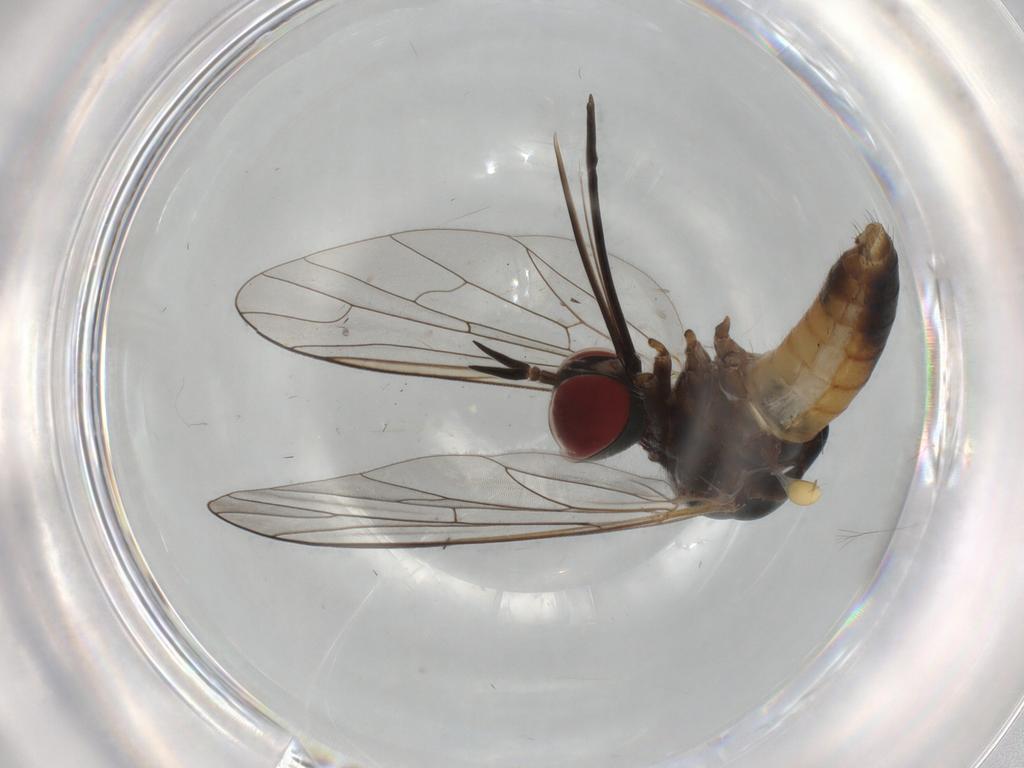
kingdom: Animalia
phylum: Arthropoda
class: Insecta
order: Diptera
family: Bombyliidae
